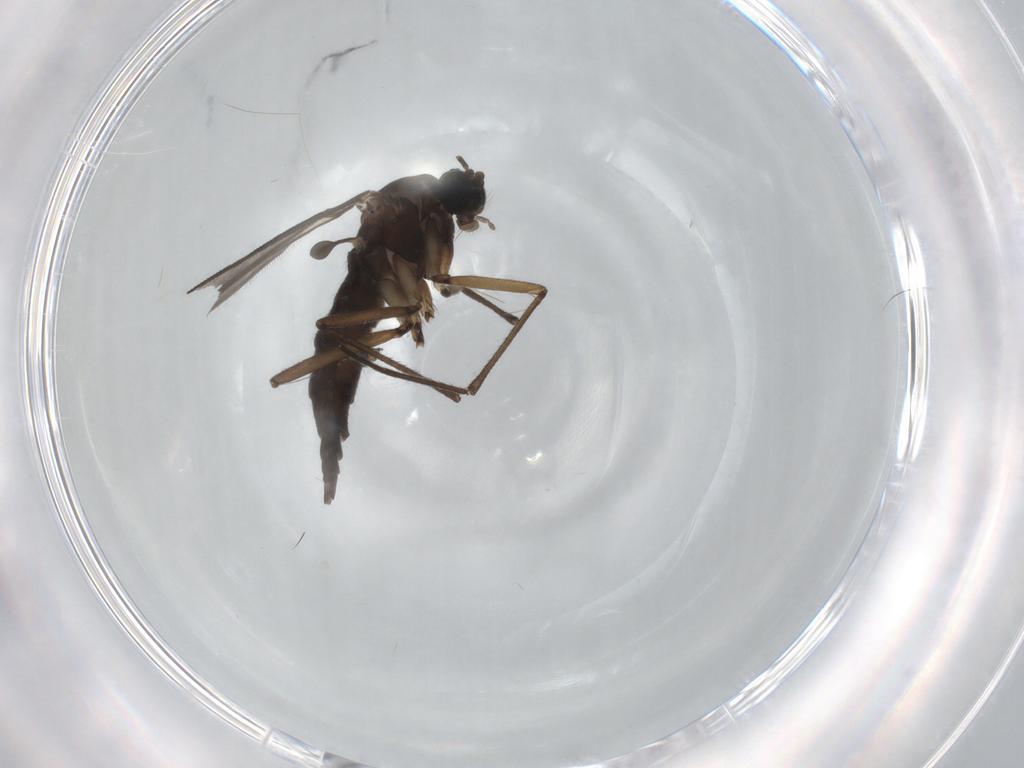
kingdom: Animalia
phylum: Arthropoda
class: Insecta
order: Diptera
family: Sciaridae
